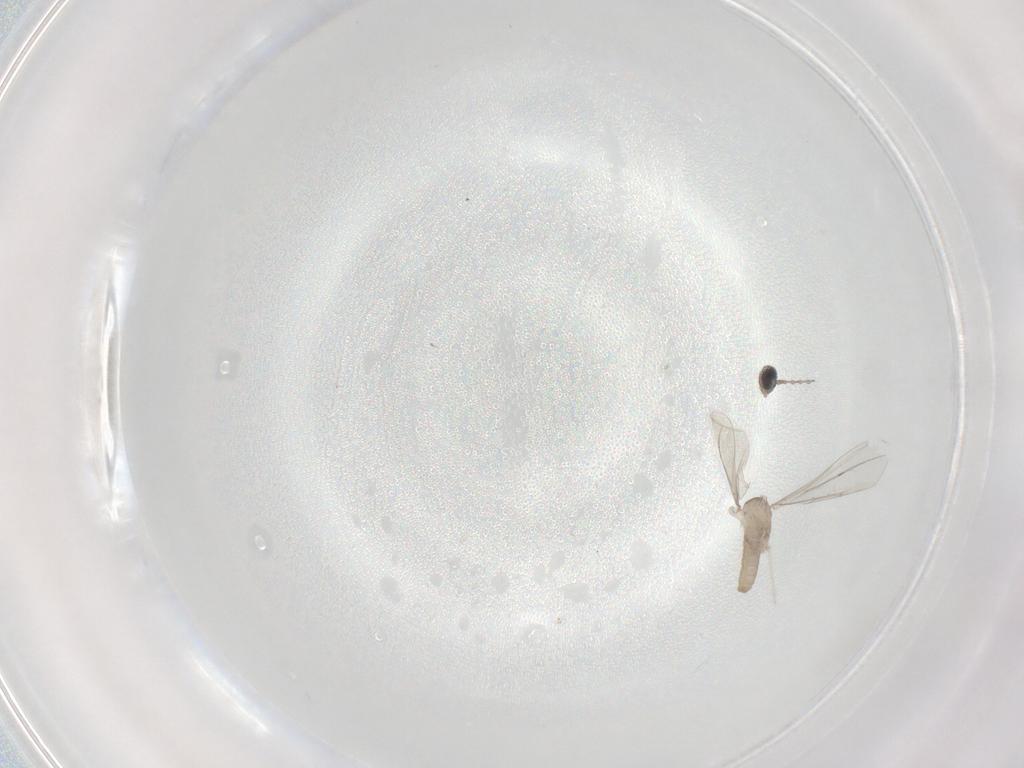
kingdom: Animalia
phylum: Arthropoda
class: Insecta
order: Diptera
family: Cecidomyiidae
